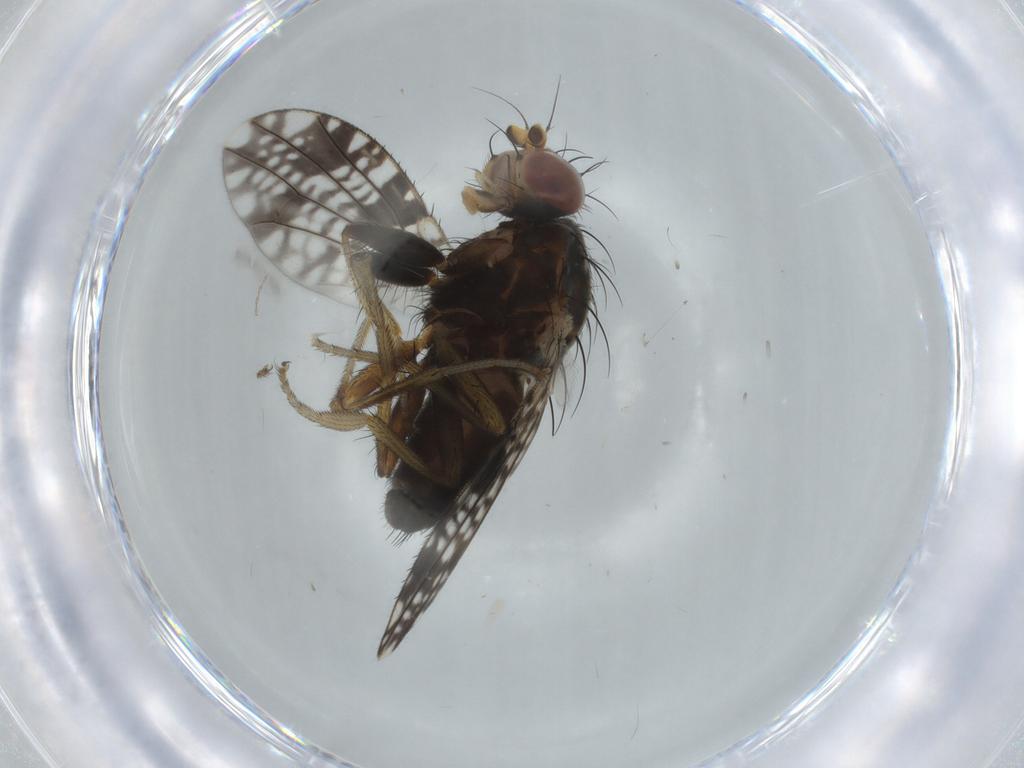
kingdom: Animalia
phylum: Arthropoda
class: Insecta
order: Diptera
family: Tephritidae
